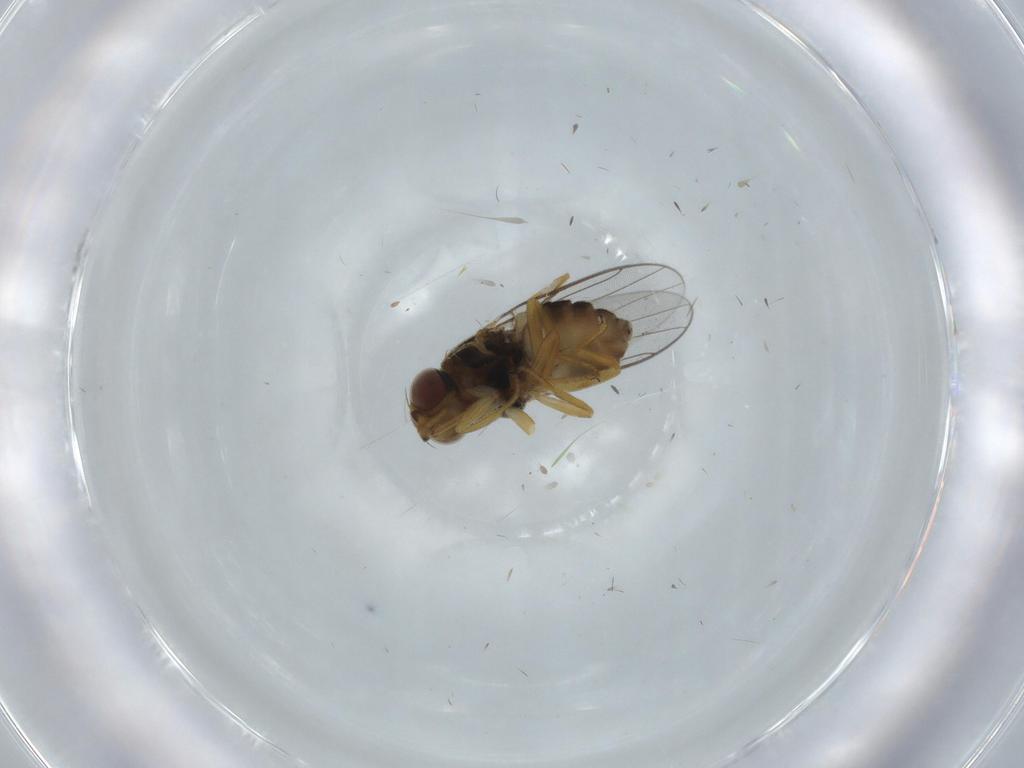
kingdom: Animalia
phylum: Arthropoda
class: Insecta
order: Diptera
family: Chloropidae
